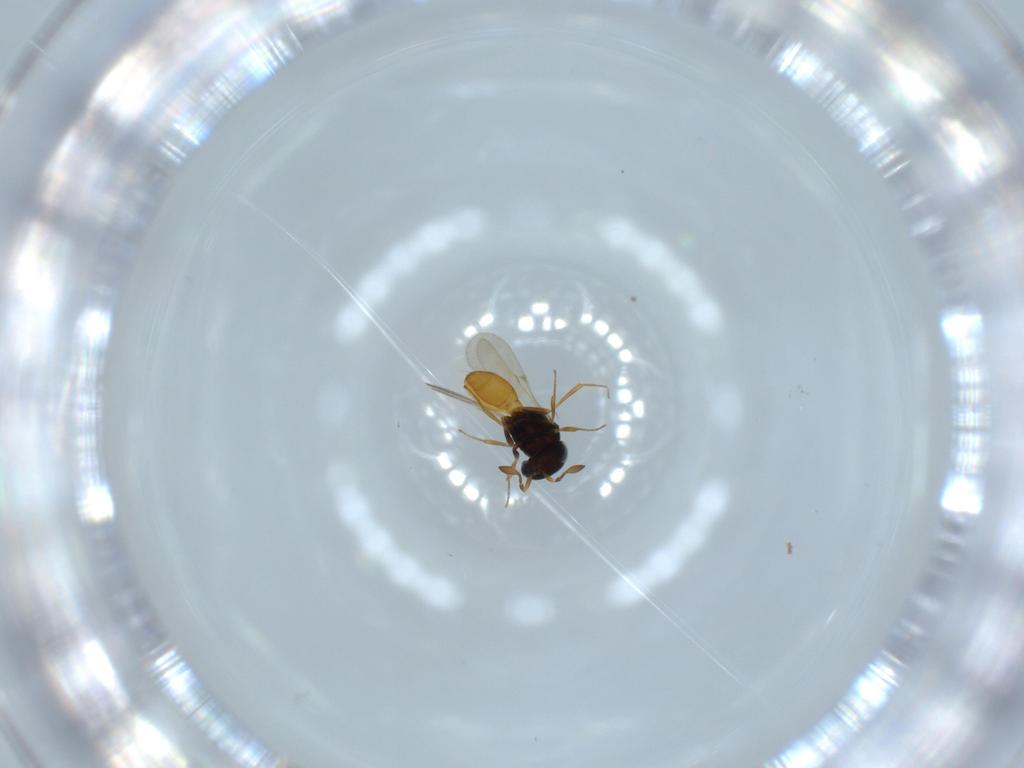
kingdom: Animalia
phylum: Arthropoda
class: Insecta
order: Hymenoptera
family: Scelionidae
